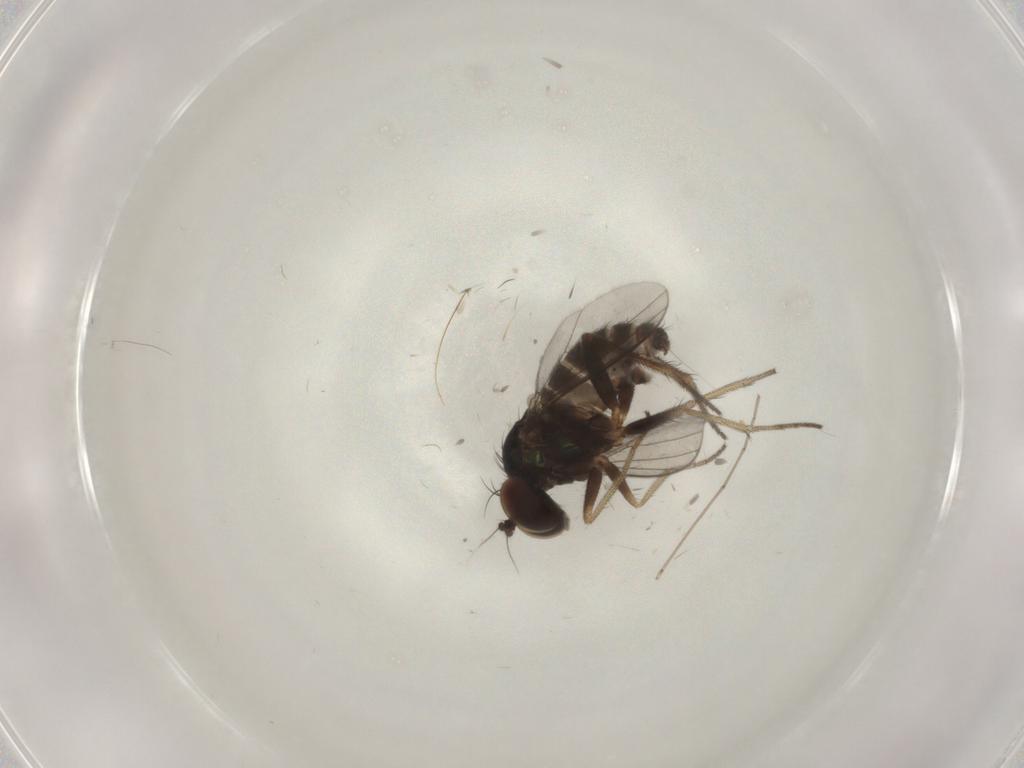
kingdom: Animalia
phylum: Arthropoda
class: Insecta
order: Diptera
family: Chironomidae
